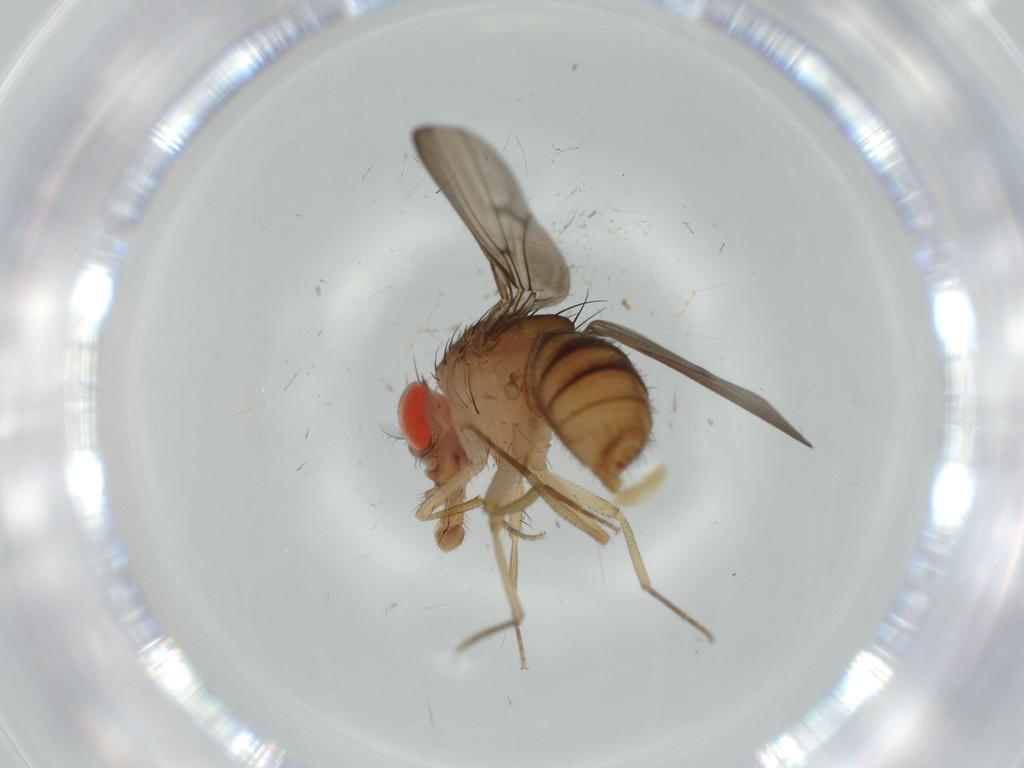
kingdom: Animalia
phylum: Arthropoda
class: Insecta
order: Diptera
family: Drosophilidae
